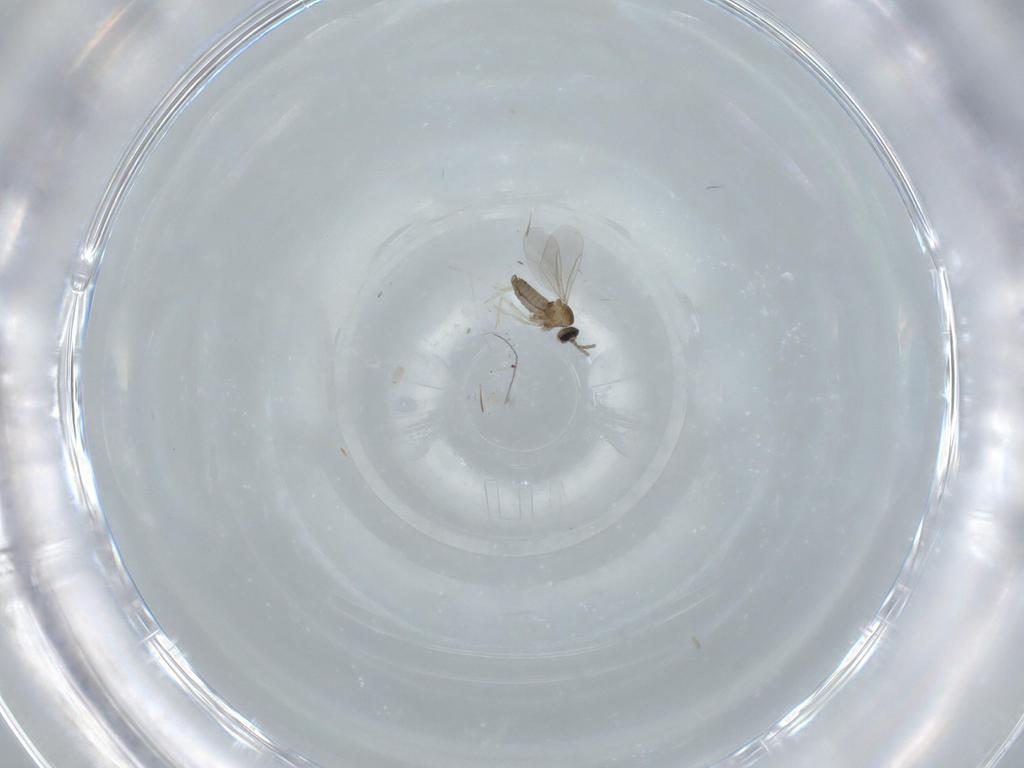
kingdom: Animalia
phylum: Arthropoda
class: Insecta
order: Diptera
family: Cecidomyiidae
